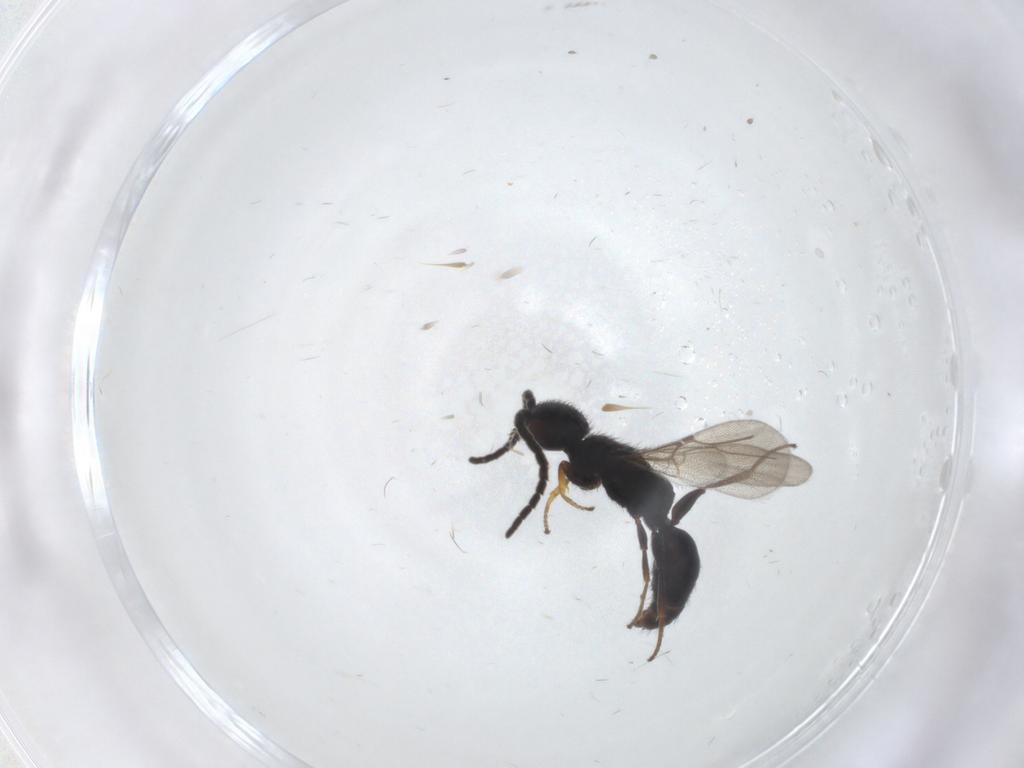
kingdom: Animalia
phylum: Arthropoda
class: Insecta
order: Hymenoptera
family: Bethylidae
